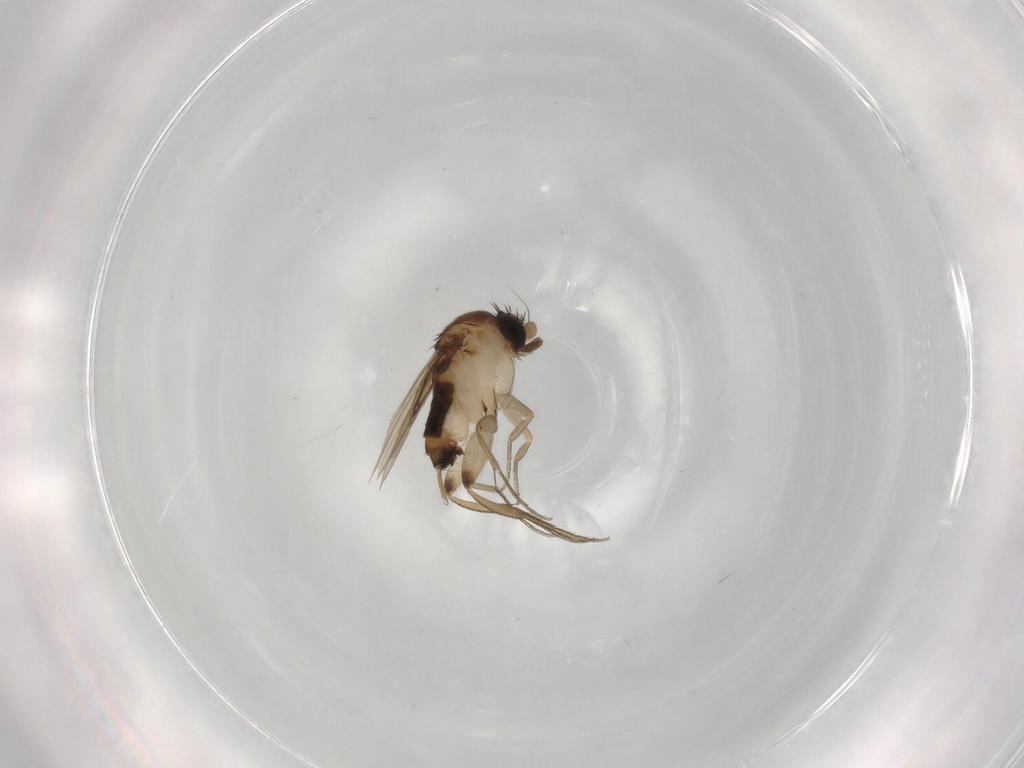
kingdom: Animalia
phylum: Arthropoda
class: Insecta
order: Diptera
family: Phoridae
